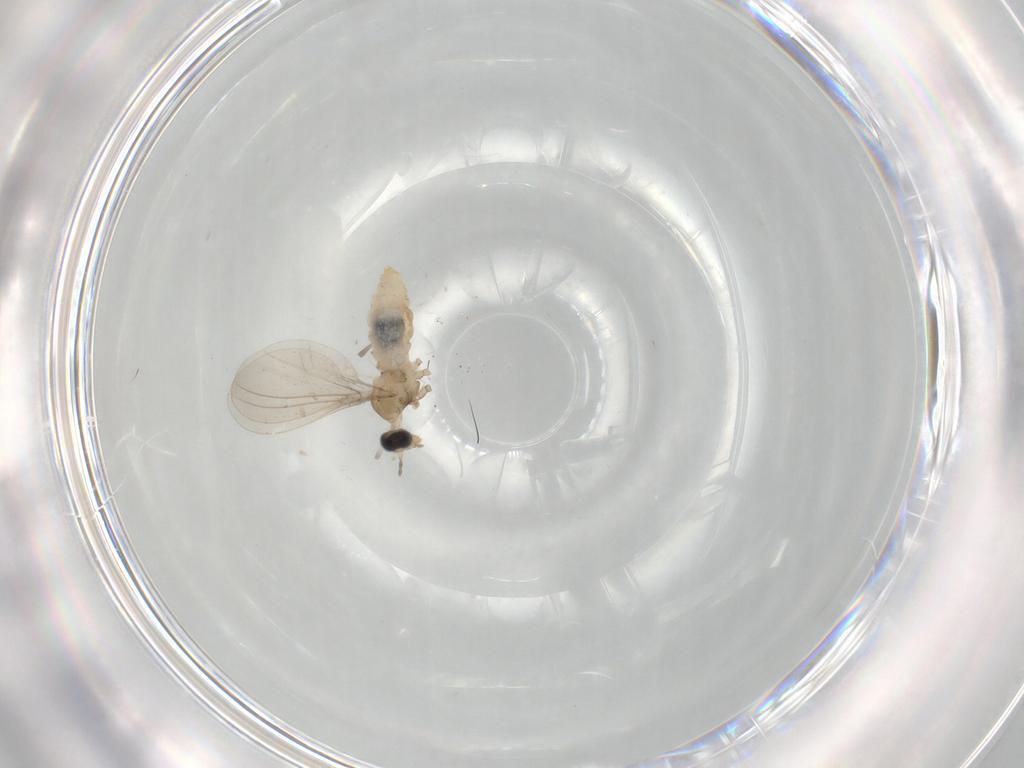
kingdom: Animalia
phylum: Arthropoda
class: Insecta
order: Diptera
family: Cecidomyiidae
